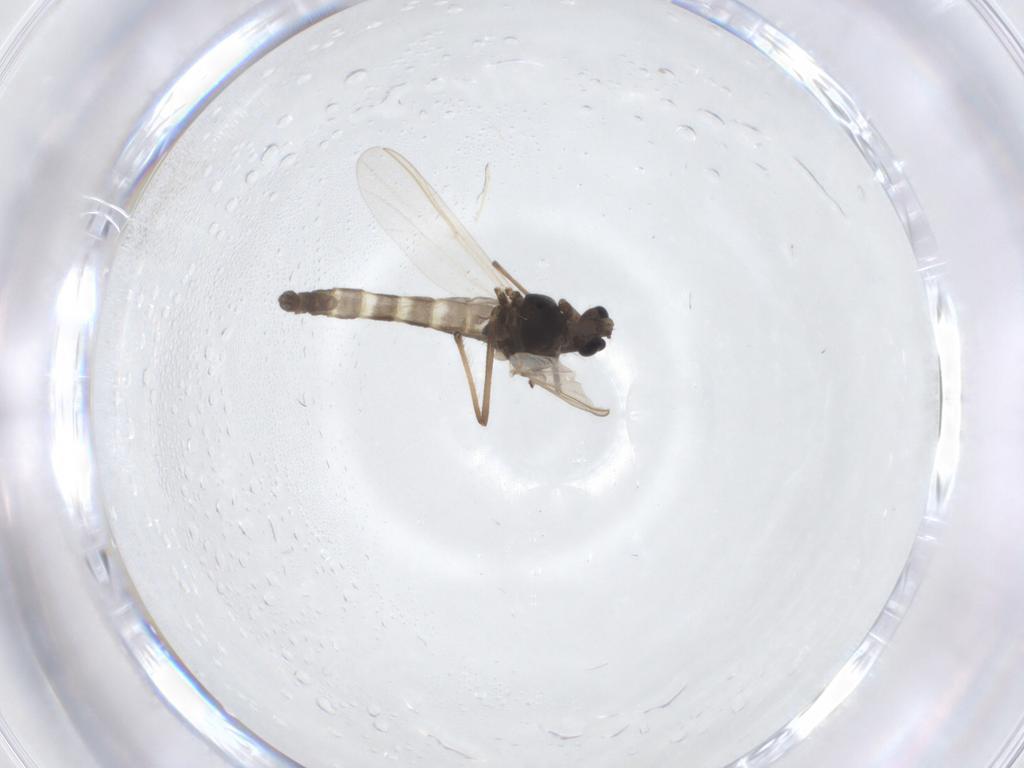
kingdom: Animalia
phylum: Arthropoda
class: Insecta
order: Diptera
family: Chironomidae
